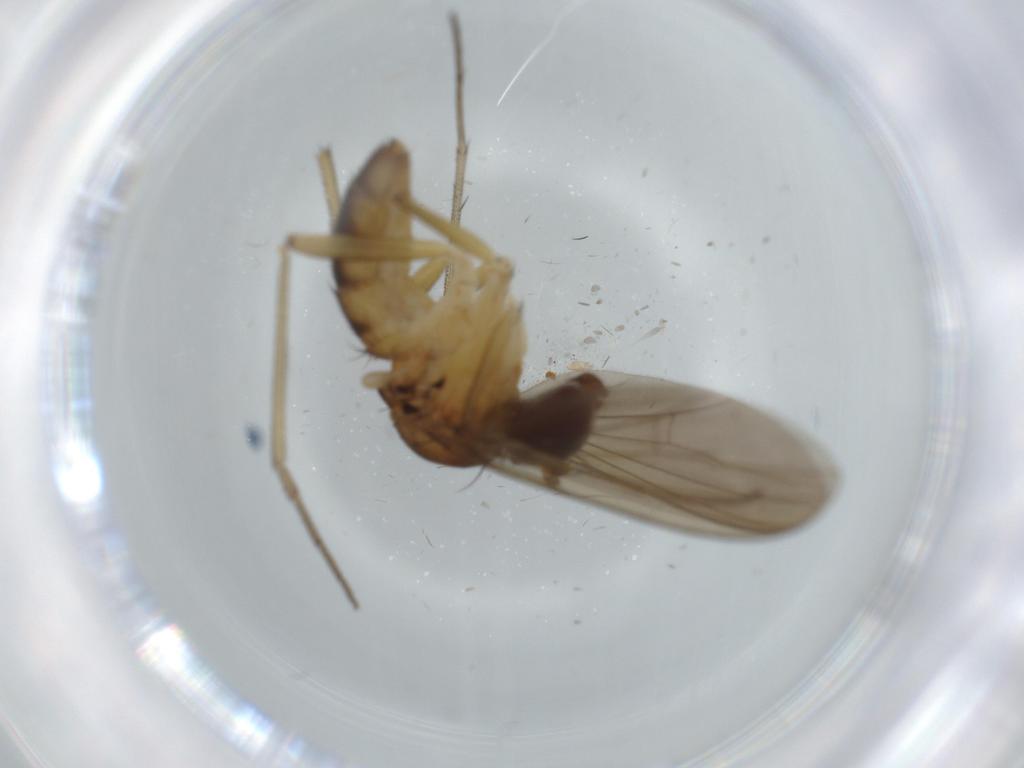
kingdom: Animalia
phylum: Arthropoda
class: Insecta
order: Diptera
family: Dolichopodidae
